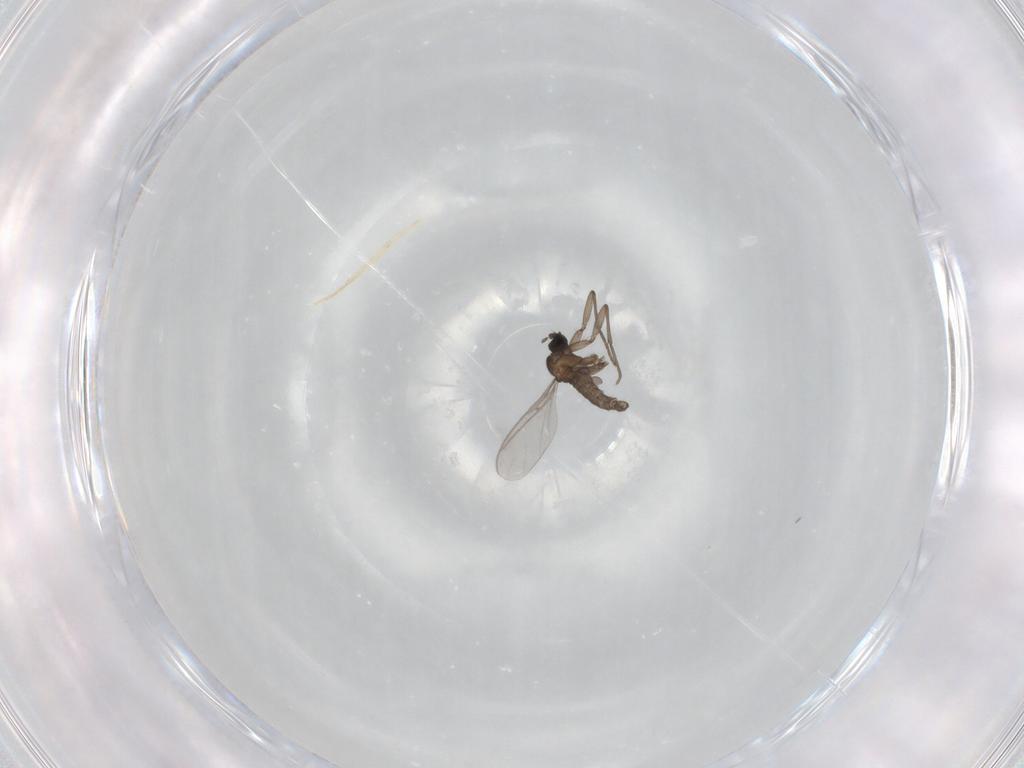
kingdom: Animalia
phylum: Arthropoda
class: Insecta
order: Diptera
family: Sciaridae
